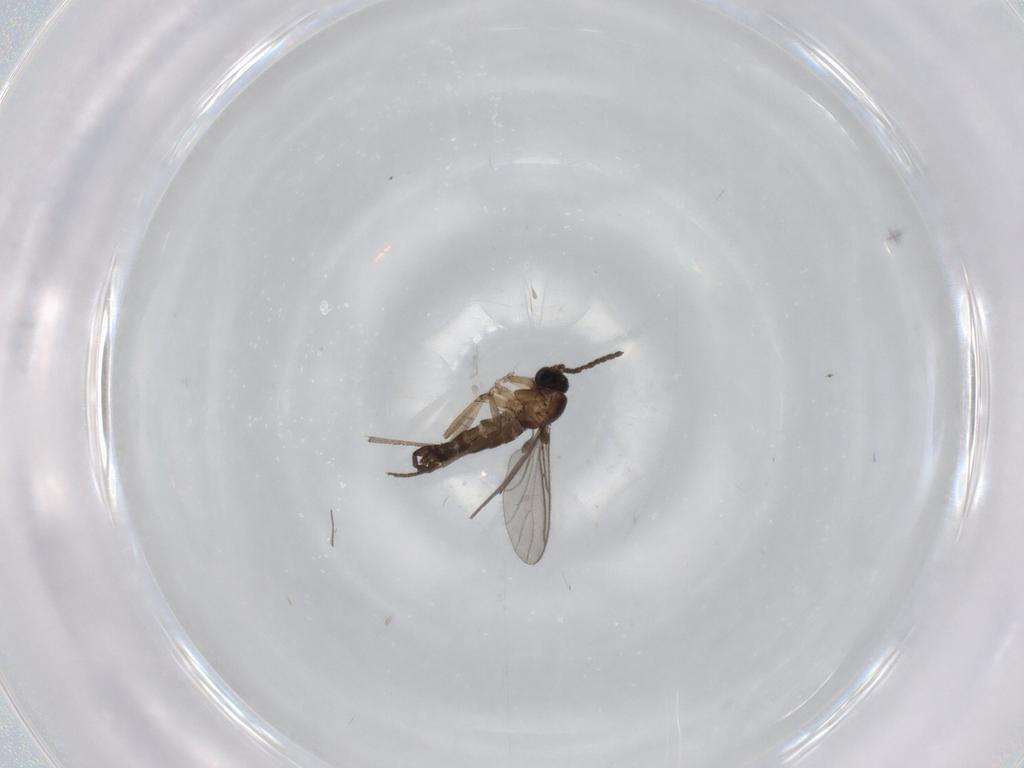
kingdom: Animalia
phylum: Arthropoda
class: Insecta
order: Diptera
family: Sciaridae
